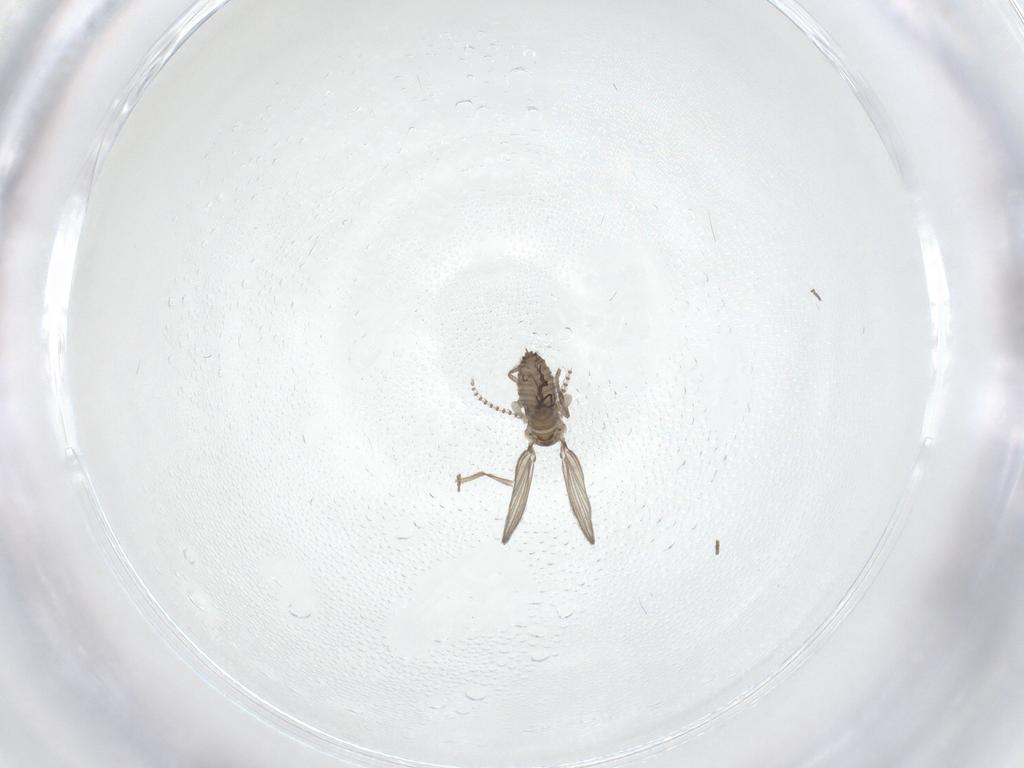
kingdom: Animalia
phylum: Arthropoda
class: Insecta
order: Diptera
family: Psychodidae
